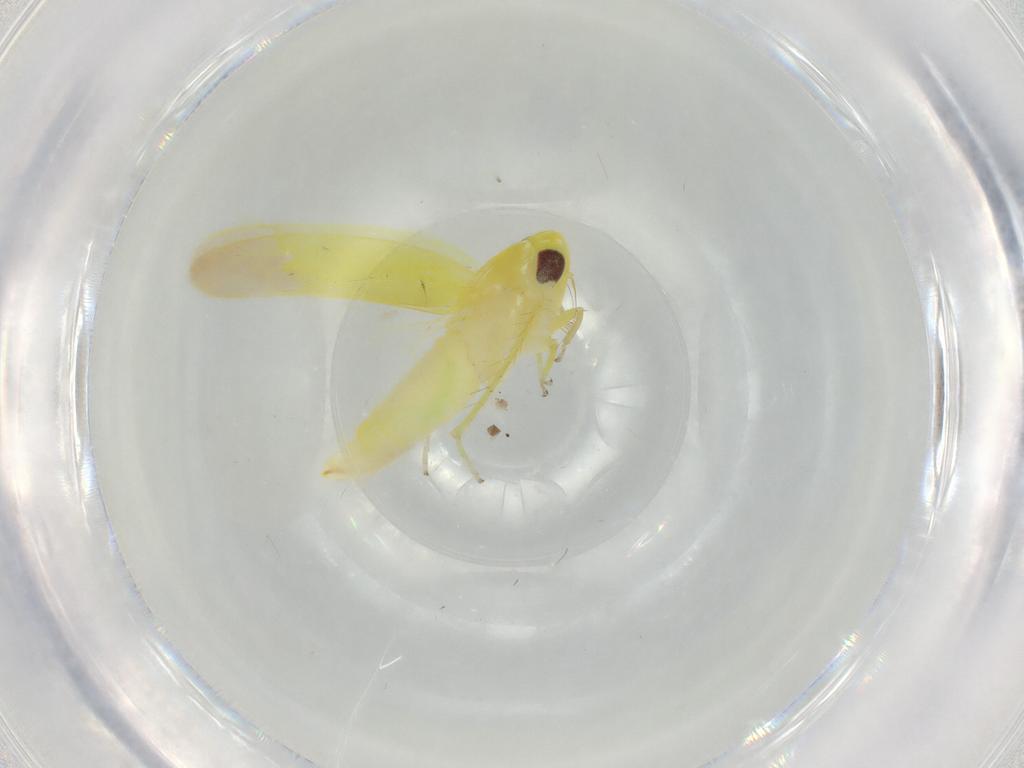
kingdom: Animalia
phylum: Arthropoda
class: Insecta
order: Hemiptera
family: Cicadellidae
